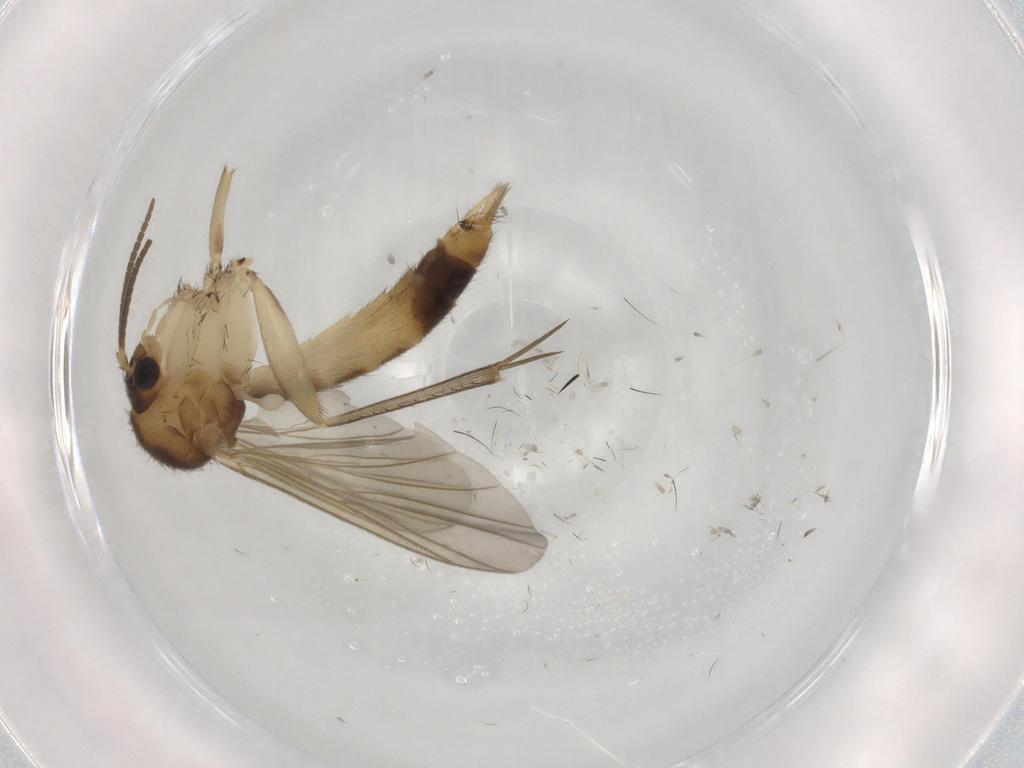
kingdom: Animalia
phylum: Arthropoda
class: Insecta
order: Diptera
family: Mycetophilidae
